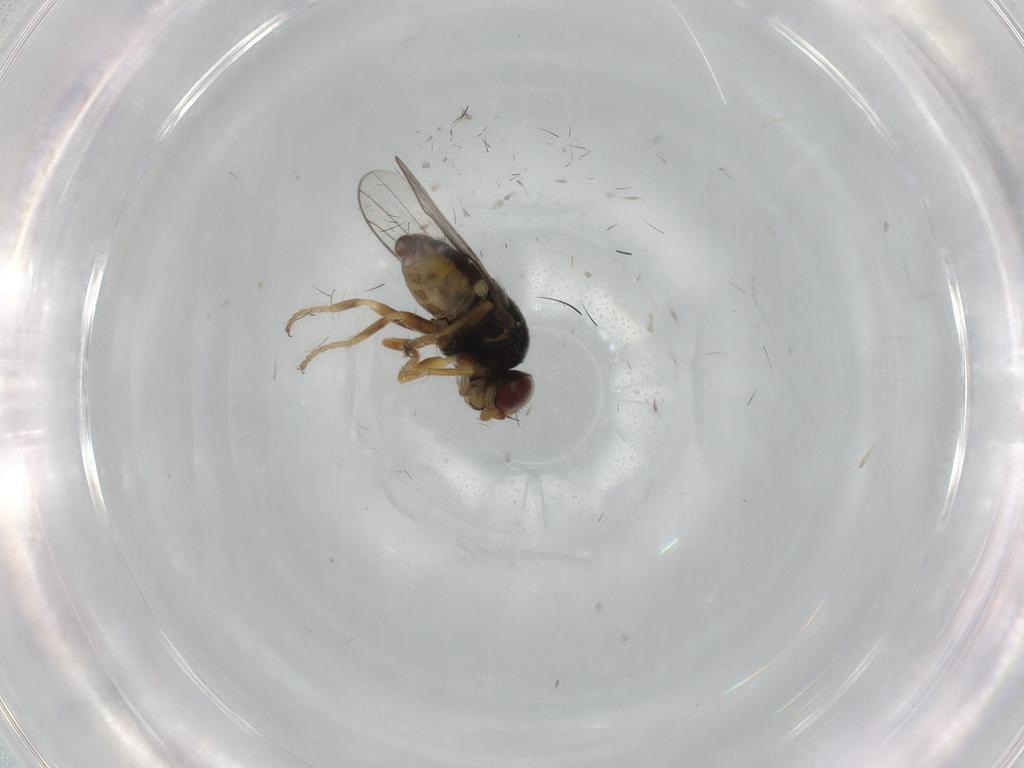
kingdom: Animalia
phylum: Arthropoda
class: Insecta
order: Diptera
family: Chloropidae
